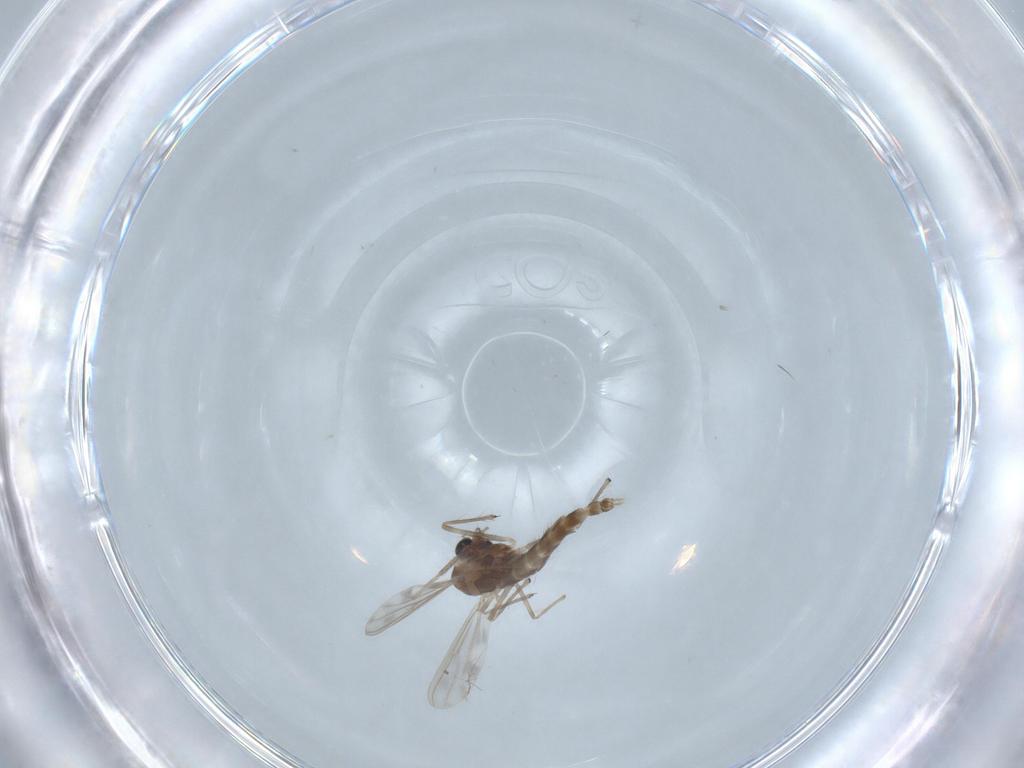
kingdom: Animalia
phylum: Arthropoda
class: Insecta
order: Diptera
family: Chironomidae
